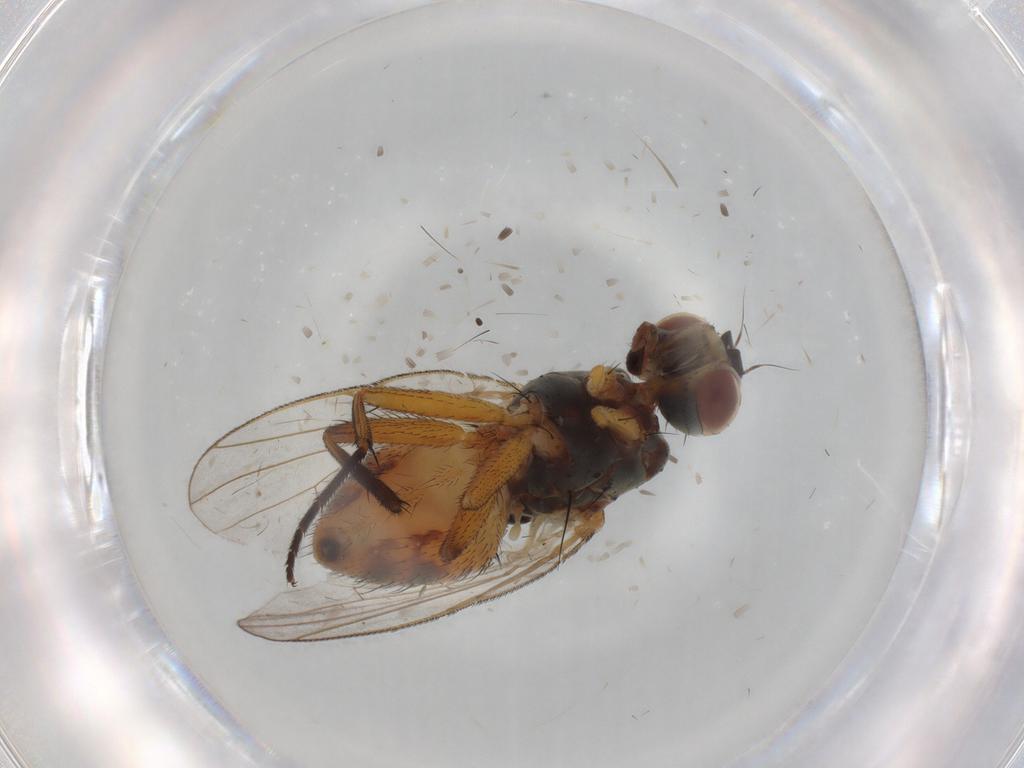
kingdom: Animalia
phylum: Arthropoda
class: Insecta
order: Diptera
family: Muscidae
